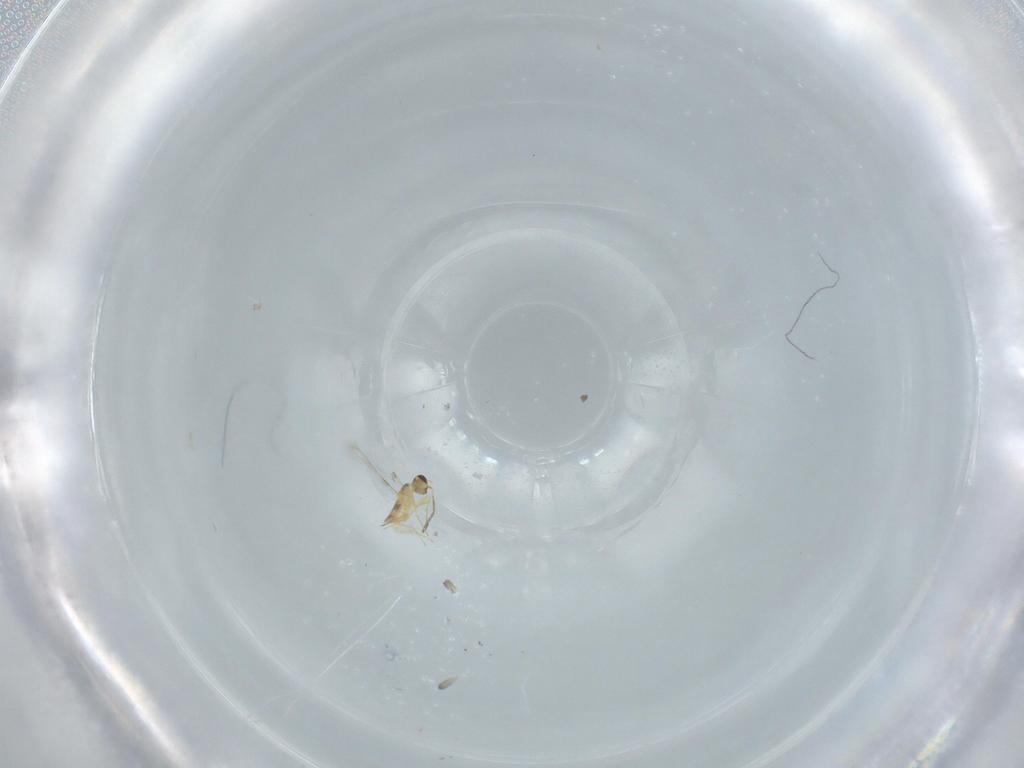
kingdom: Animalia
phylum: Arthropoda
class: Insecta
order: Hymenoptera
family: Mymaridae
